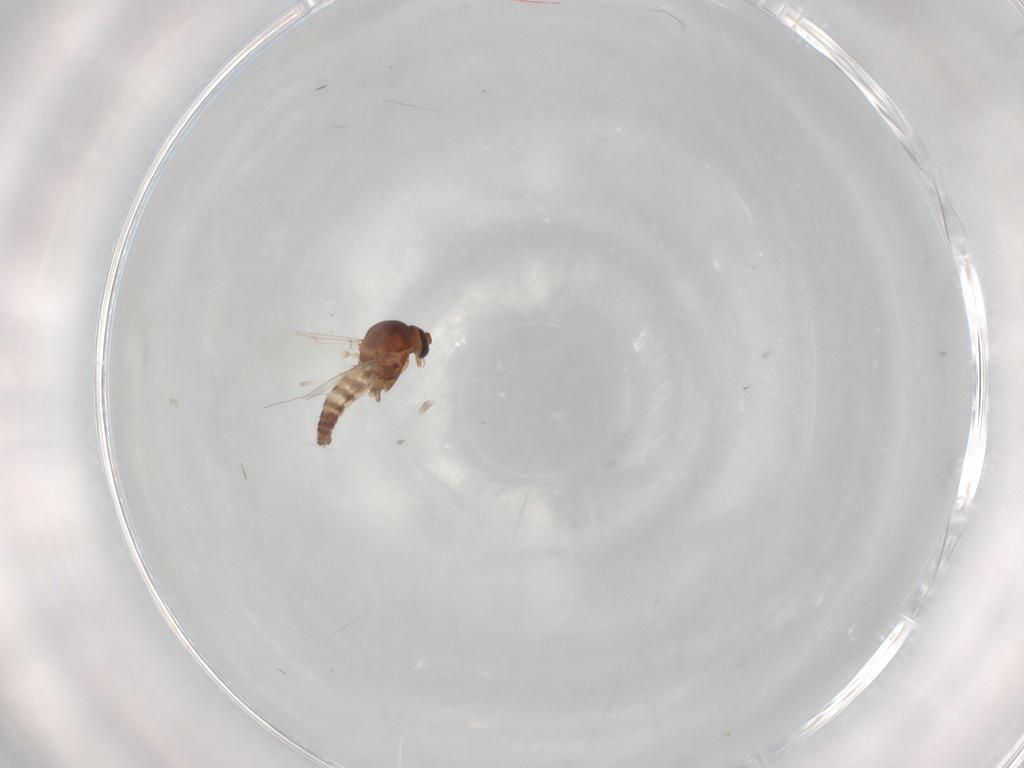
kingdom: Animalia
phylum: Arthropoda
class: Insecta
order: Diptera
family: Ceratopogonidae
